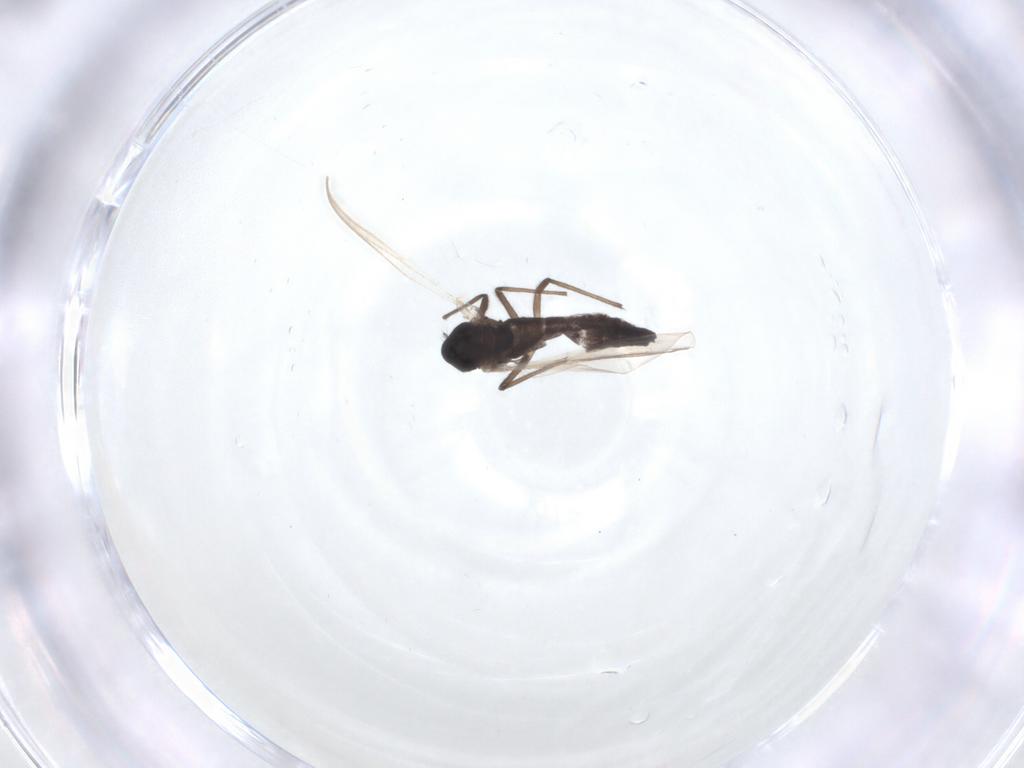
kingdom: Animalia
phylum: Arthropoda
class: Insecta
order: Diptera
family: Chironomidae
